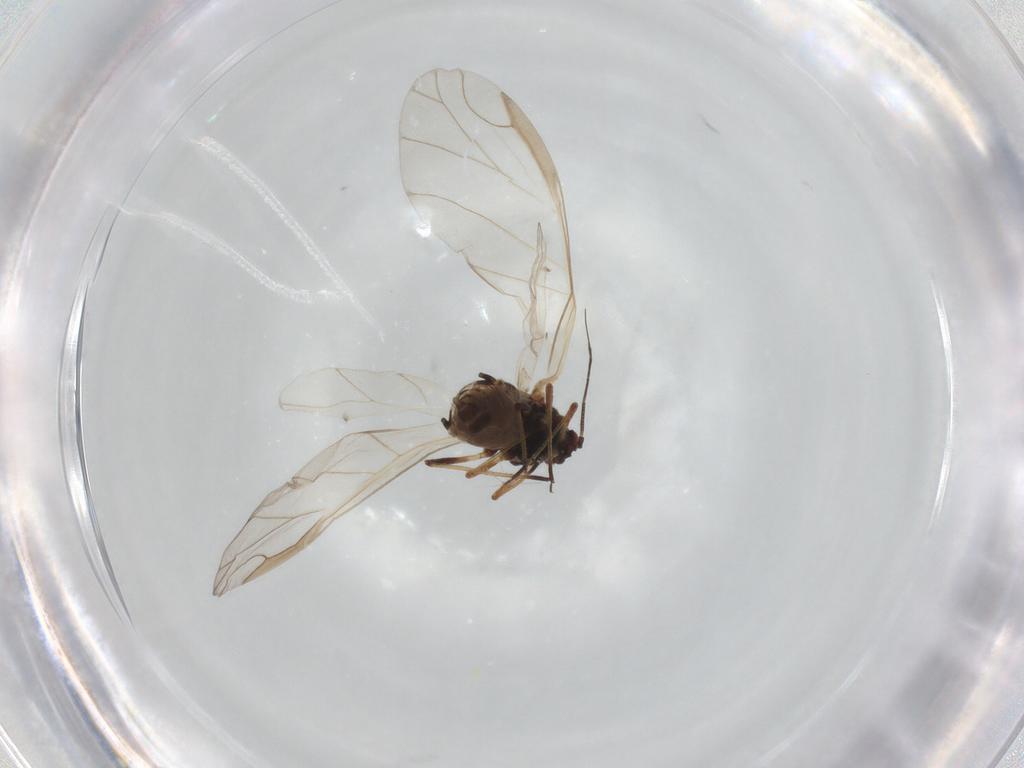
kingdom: Animalia
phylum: Arthropoda
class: Insecta
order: Hemiptera
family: Aphididae
